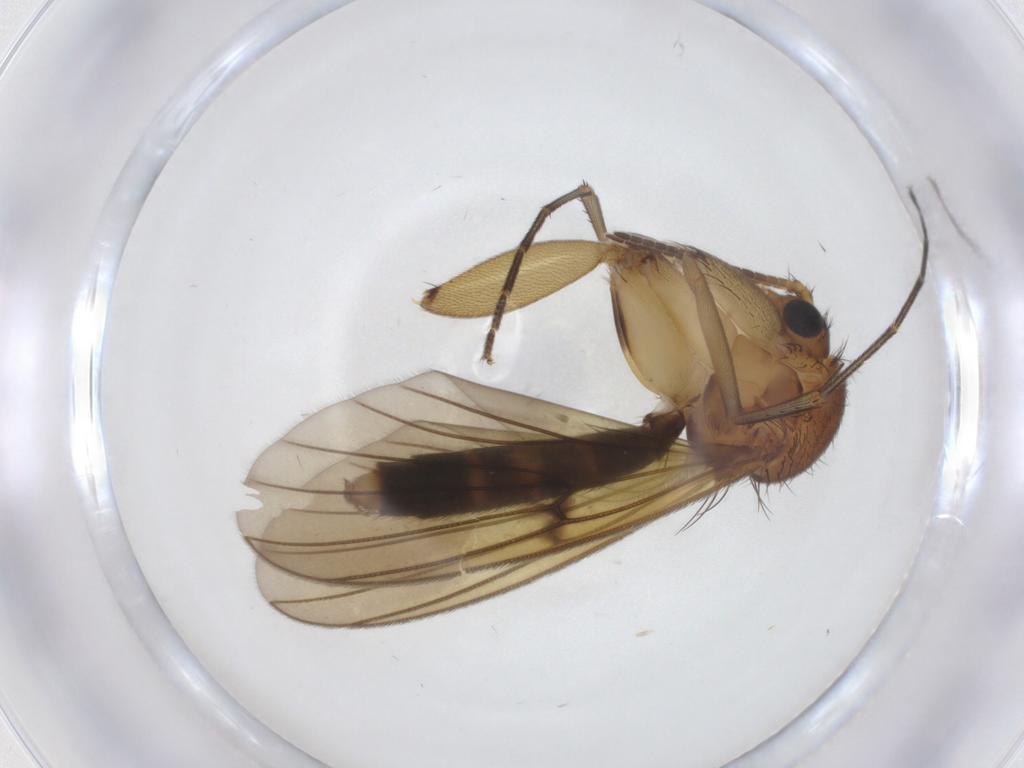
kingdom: Animalia
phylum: Arthropoda
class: Insecta
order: Diptera
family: Tachinidae
